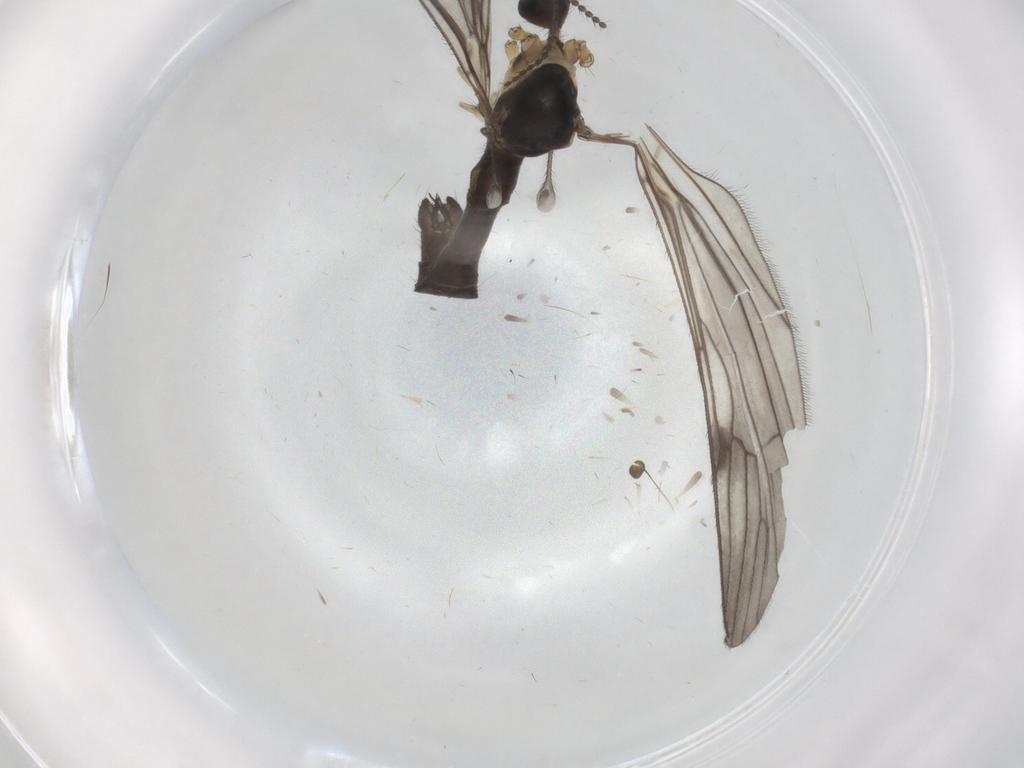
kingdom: Animalia
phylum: Arthropoda
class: Insecta
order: Diptera
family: Limoniidae
